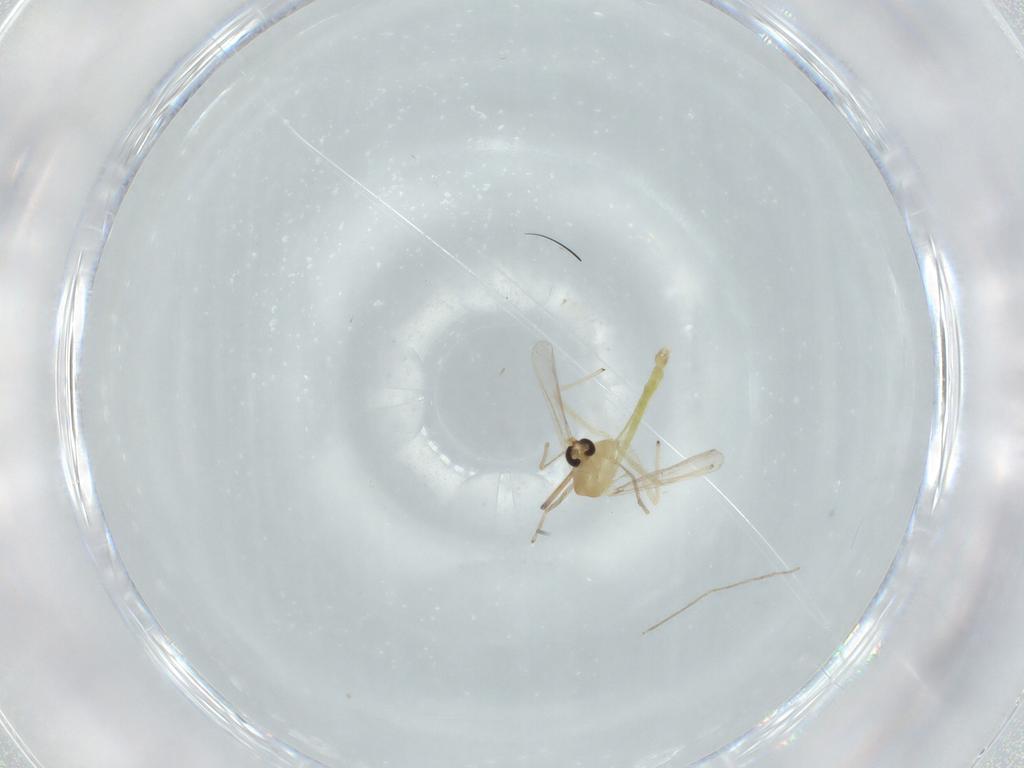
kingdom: Animalia
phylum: Arthropoda
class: Insecta
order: Diptera
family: Chironomidae
